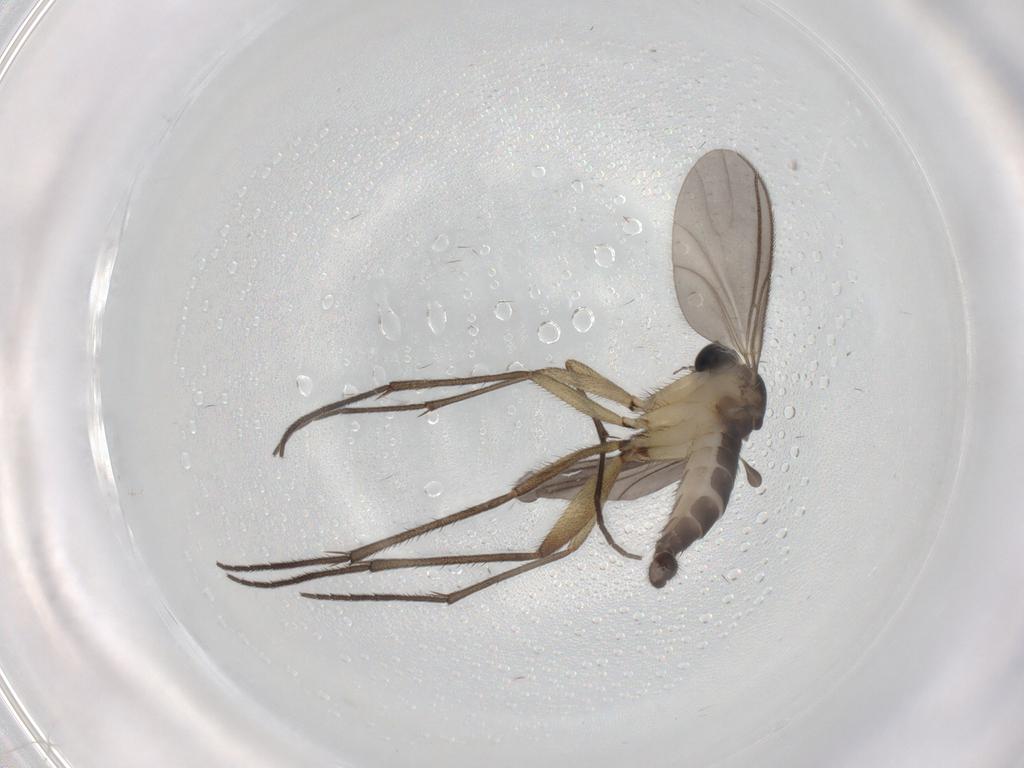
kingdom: Animalia
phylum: Arthropoda
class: Insecta
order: Diptera
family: Sciaridae
